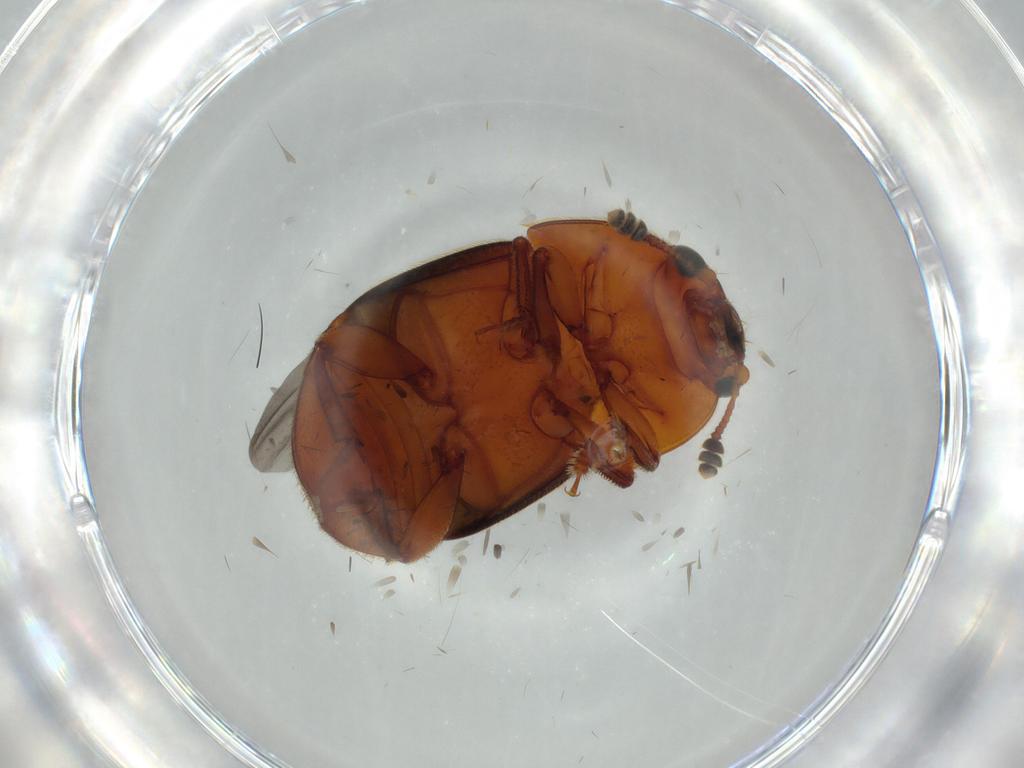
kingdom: Animalia
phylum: Arthropoda
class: Insecta
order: Coleoptera
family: Nitidulidae
